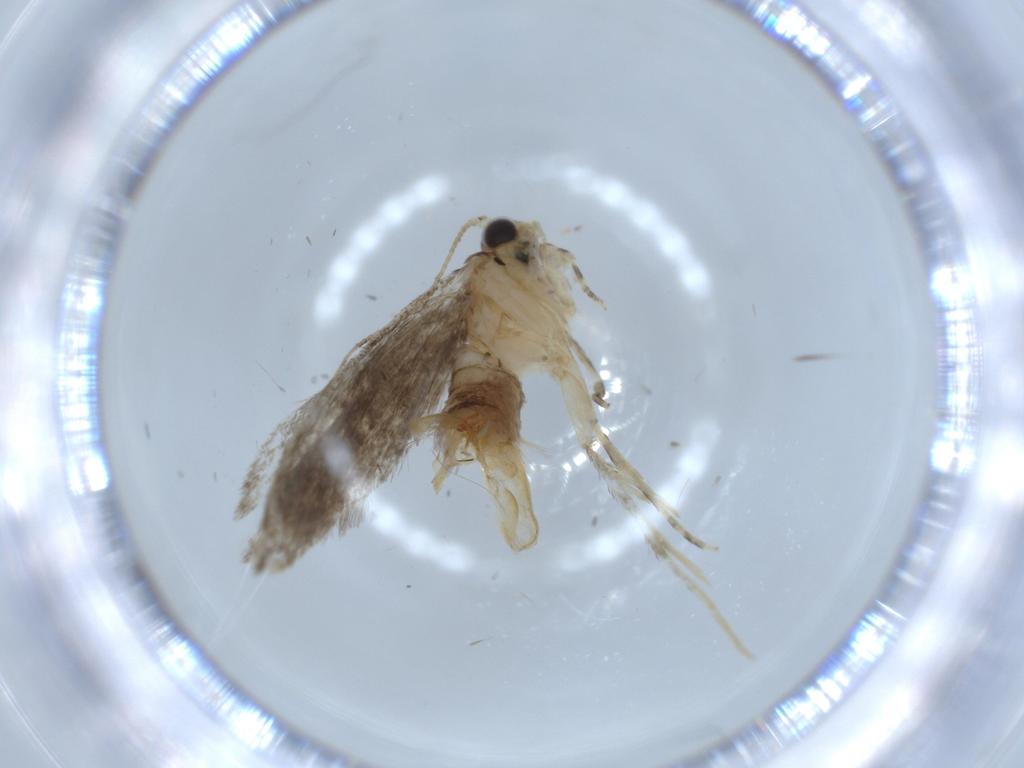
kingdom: Animalia
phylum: Arthropoda
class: Insecta
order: Lepidoptera
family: Tineidae
